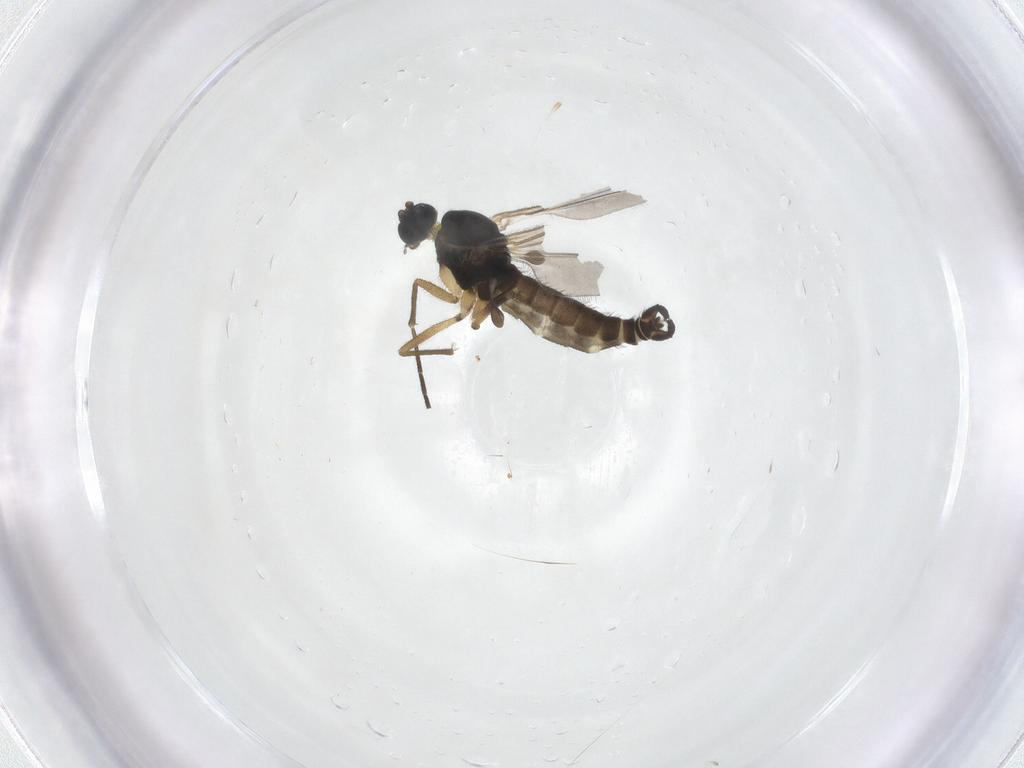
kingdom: Animalia
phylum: Arthropoda
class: Insecta
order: Diptera
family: Sciaridae
